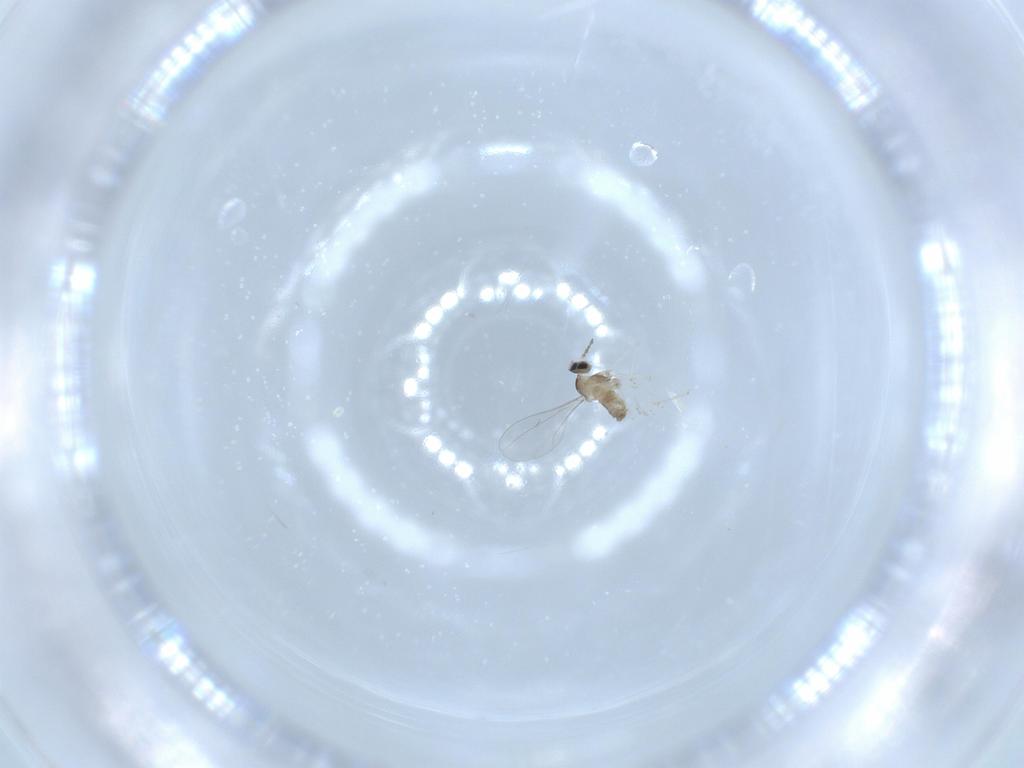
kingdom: Animalia
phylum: Arthropoda
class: Insecta
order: Diptera
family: Cecidomyiidae
